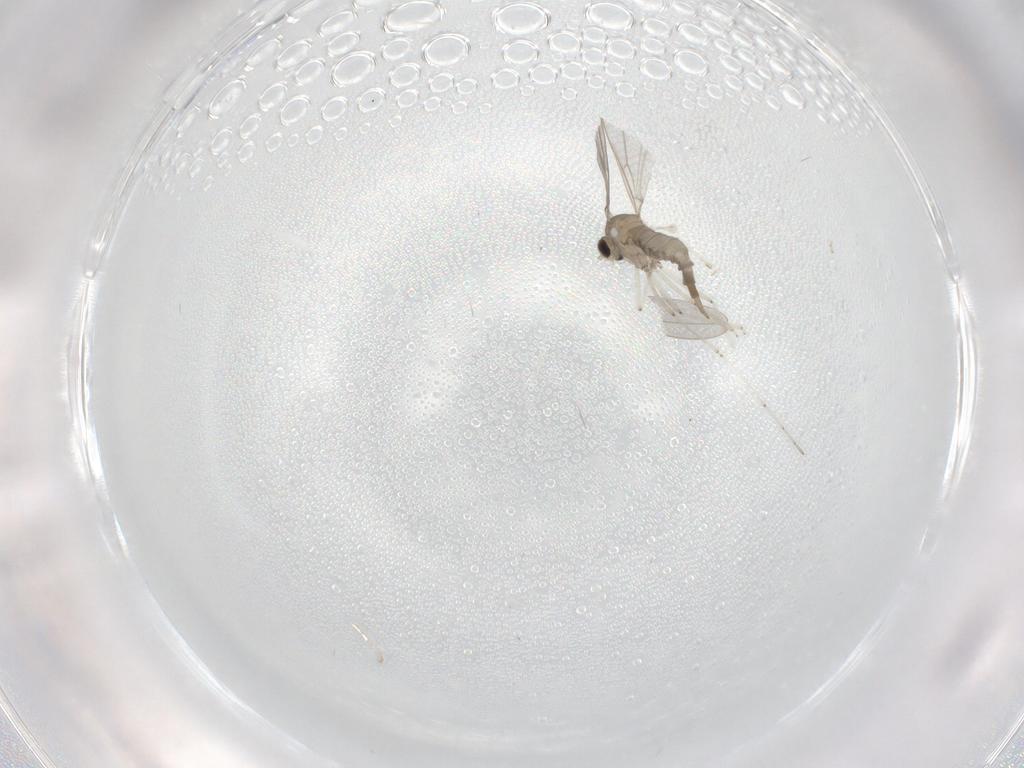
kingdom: Animalia
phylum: Arthropoda
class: Insecta
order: Diptera
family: Cecidomyiidae
